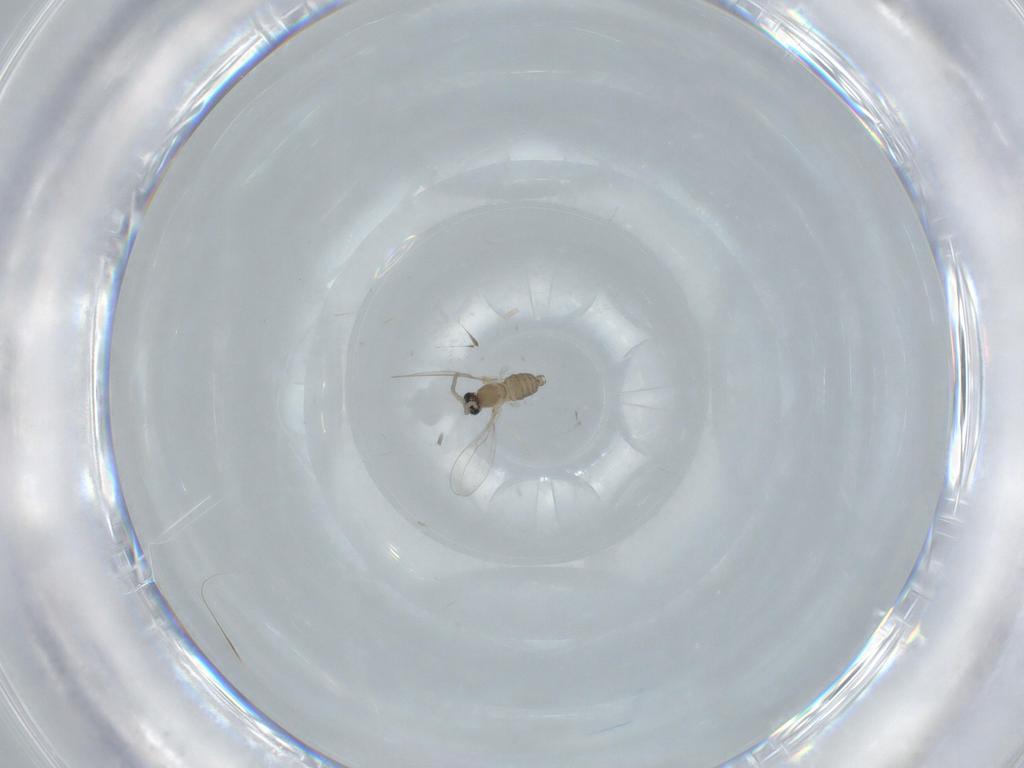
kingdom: Animalia
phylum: Arthropoda
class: Insecta
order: Diptera
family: Cecidomyiidae
